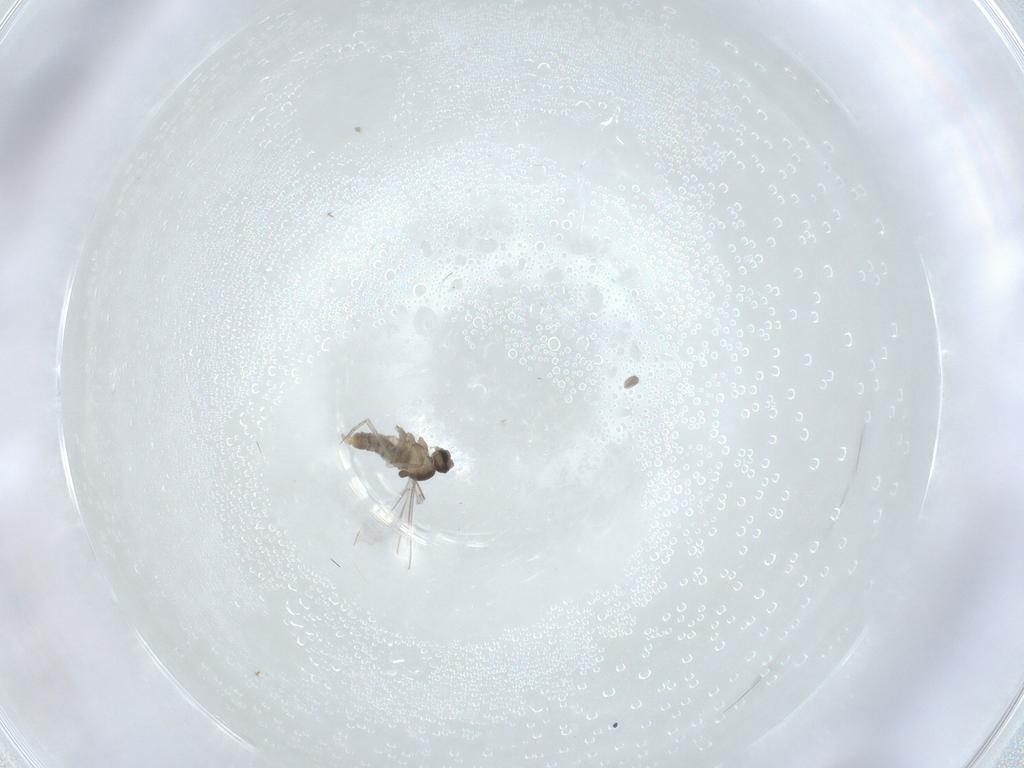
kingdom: Animalia
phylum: Arthropoda
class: Insecta
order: Diptera
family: Cecidomyiidae
